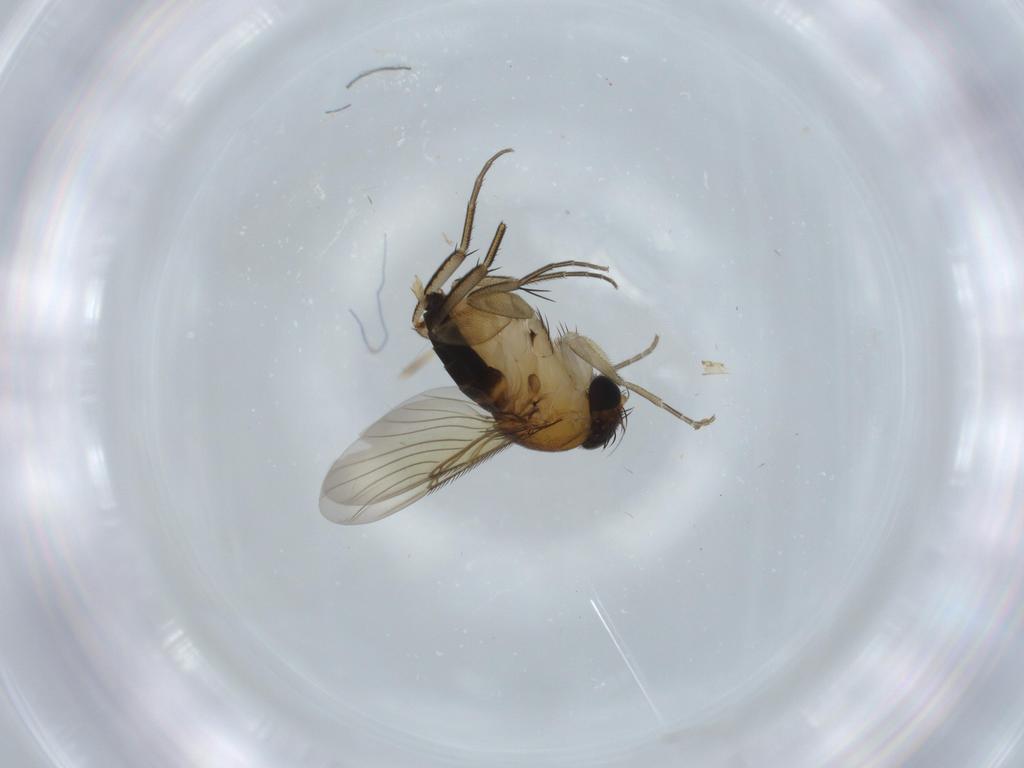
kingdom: Animalia
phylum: Arthropoda
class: Insecta
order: Diptera
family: Phoridae
